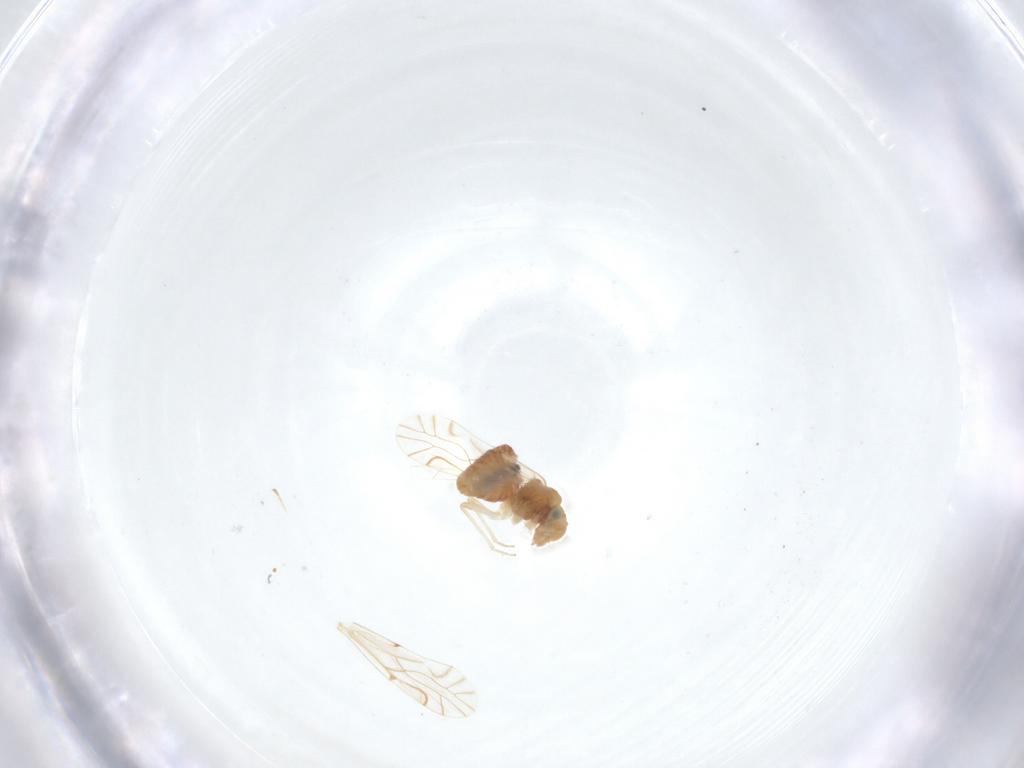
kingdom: Animalia
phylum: Arthropoda
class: Insecta
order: Psocodea
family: Lachesillidae
